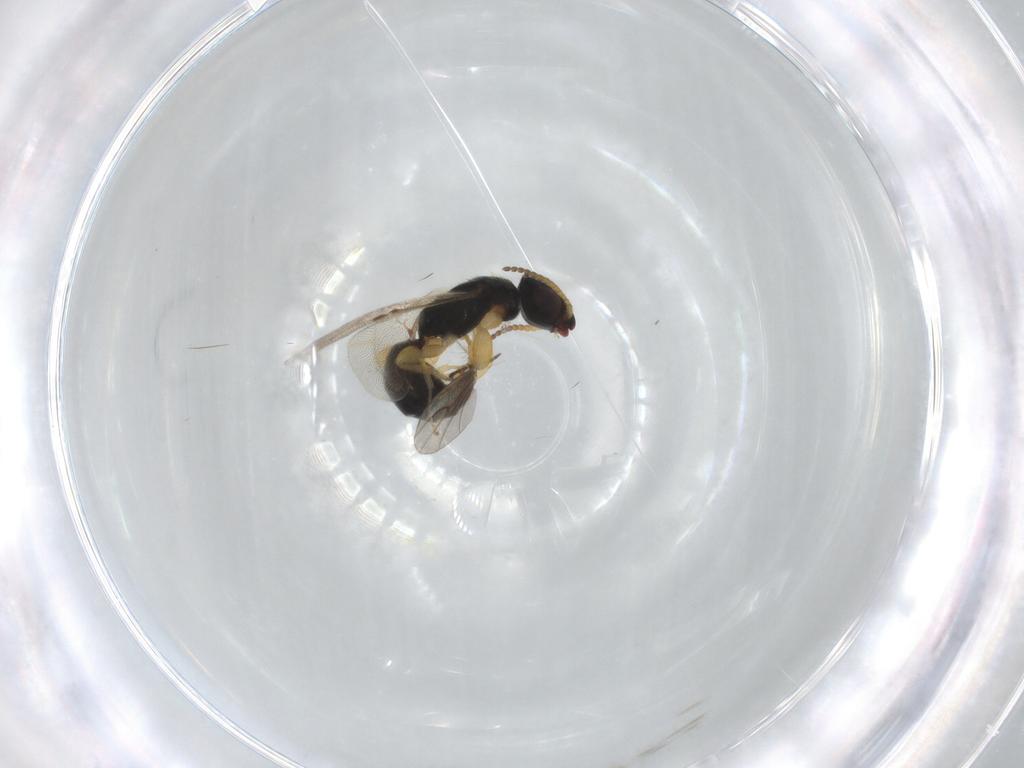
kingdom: Animalia
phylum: Arthropoda
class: Insecta
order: Hymenoptera
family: Bethylidae
